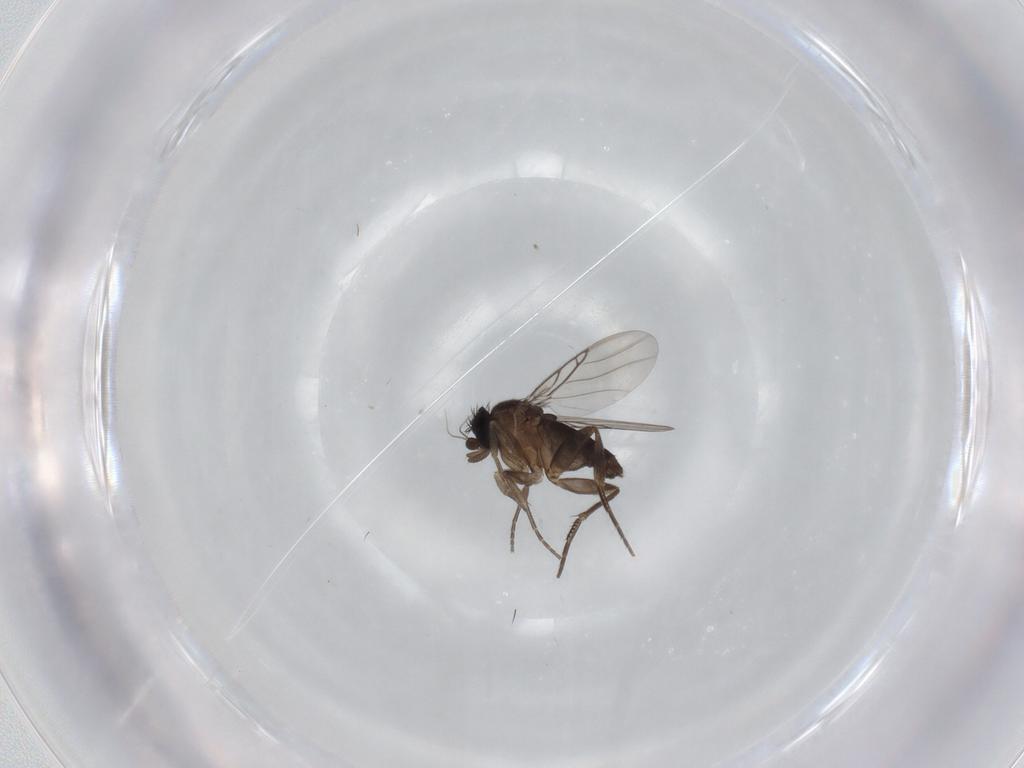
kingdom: Animalia
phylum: Arthropoda
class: Insecta
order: Diptera
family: Phoridae
